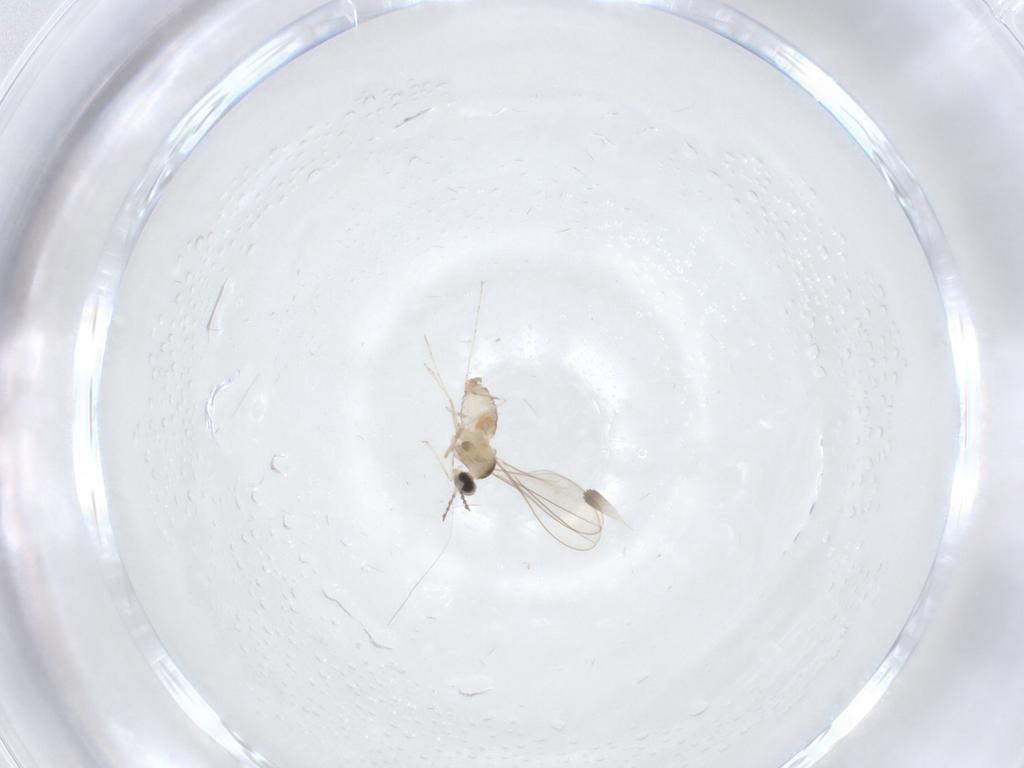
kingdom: Animalia
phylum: Arthropoda
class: Insecta
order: Diptera
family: Cecidomyiidae
